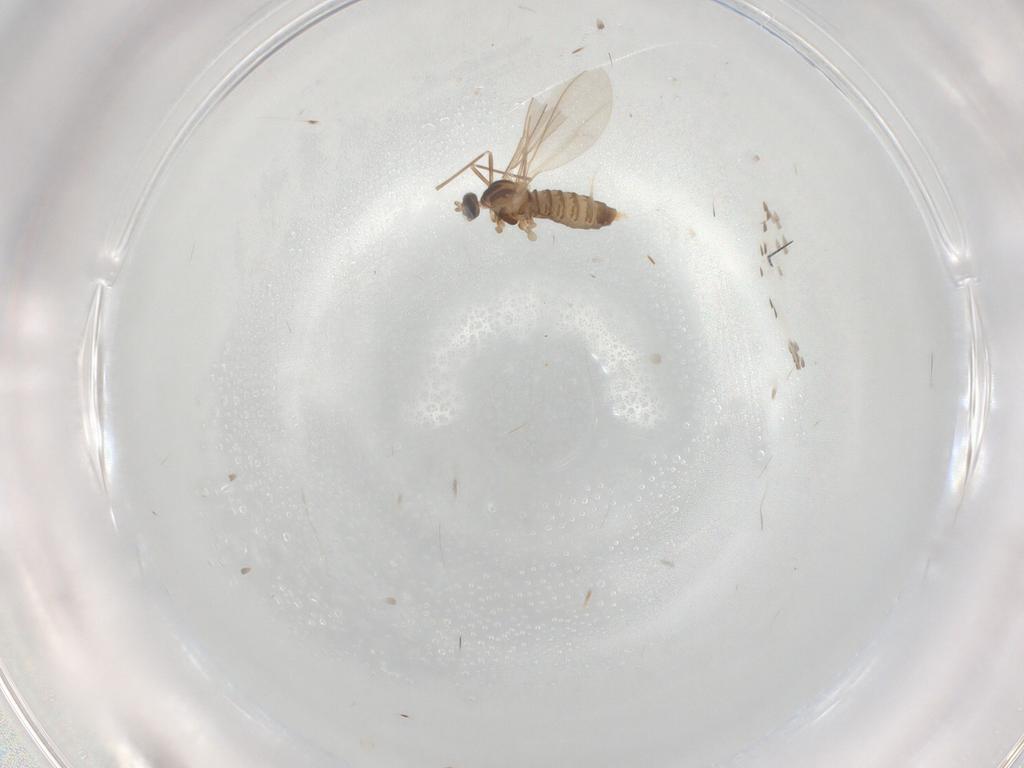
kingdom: Animalia
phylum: Arthropoda
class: Insecta
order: Diptera
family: Cecidomyiidae
